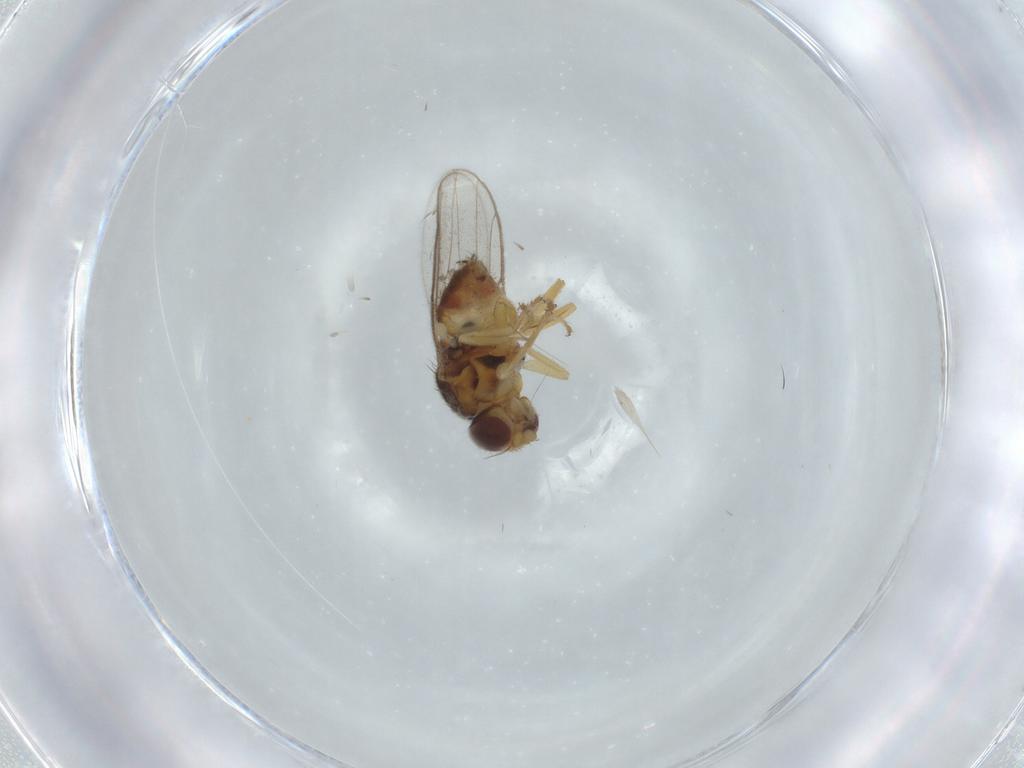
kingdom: Animalia
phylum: Arthropoda
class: Insecta
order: Diptera
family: Chloropidae
